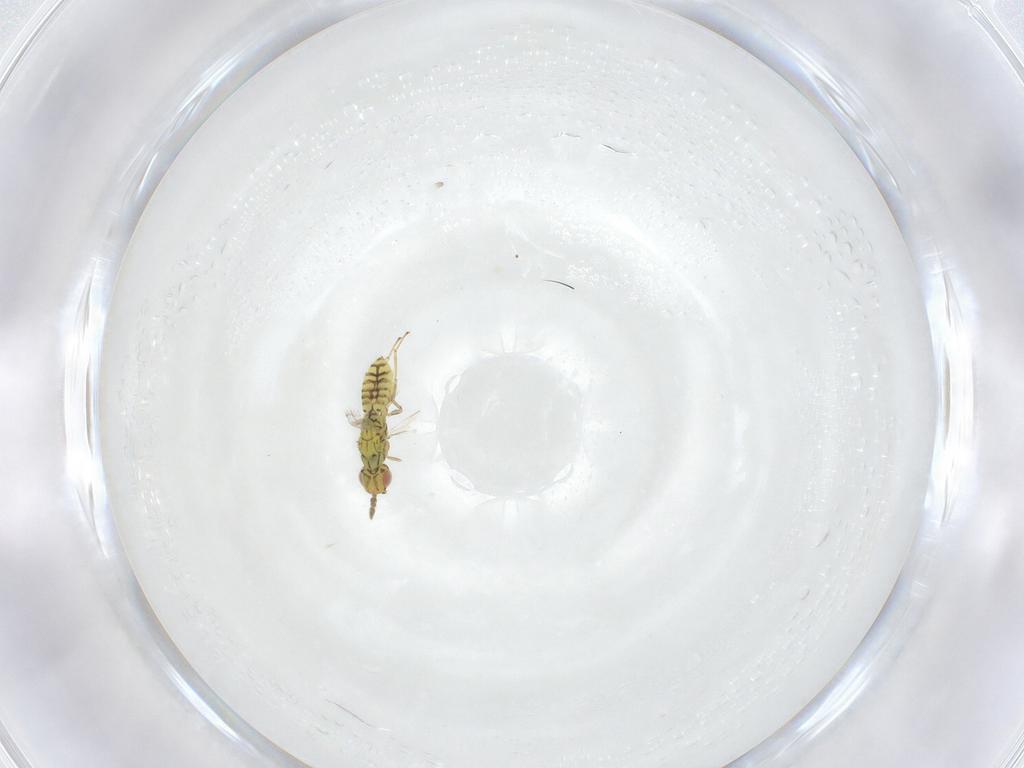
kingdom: Animalia
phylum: Arthropoda
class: Insecta
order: Hymenoptera
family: Eulophidae
